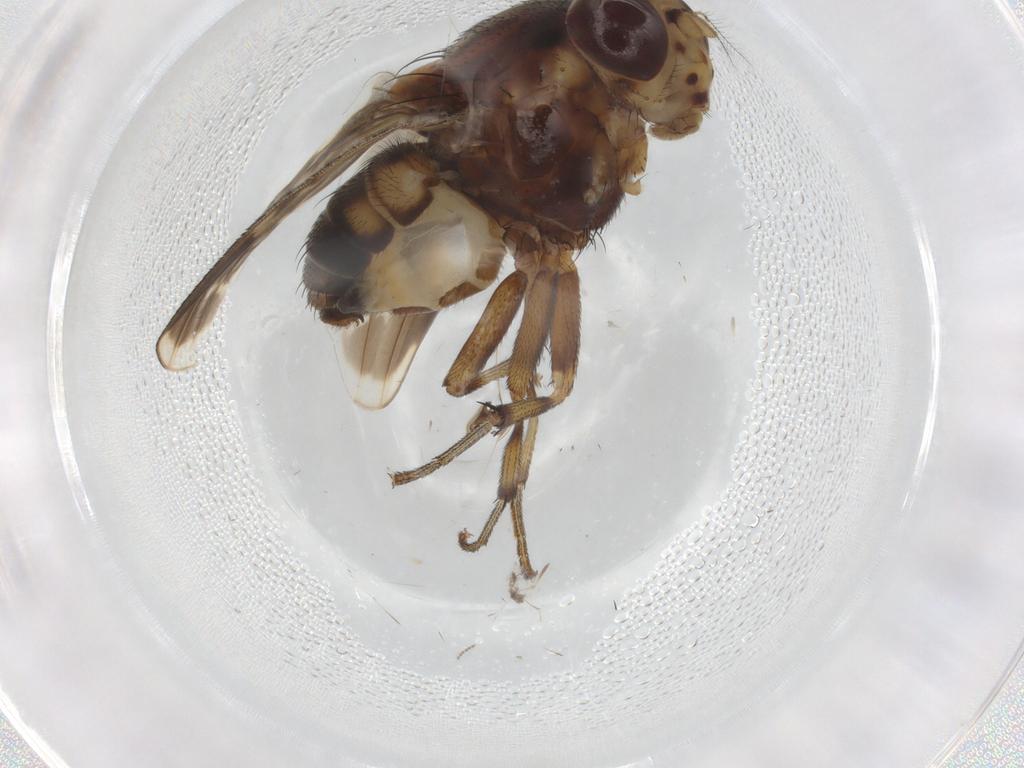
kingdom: Animalia
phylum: Arthropoda
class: Insecta
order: Diptera
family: Cecidomyiidae
